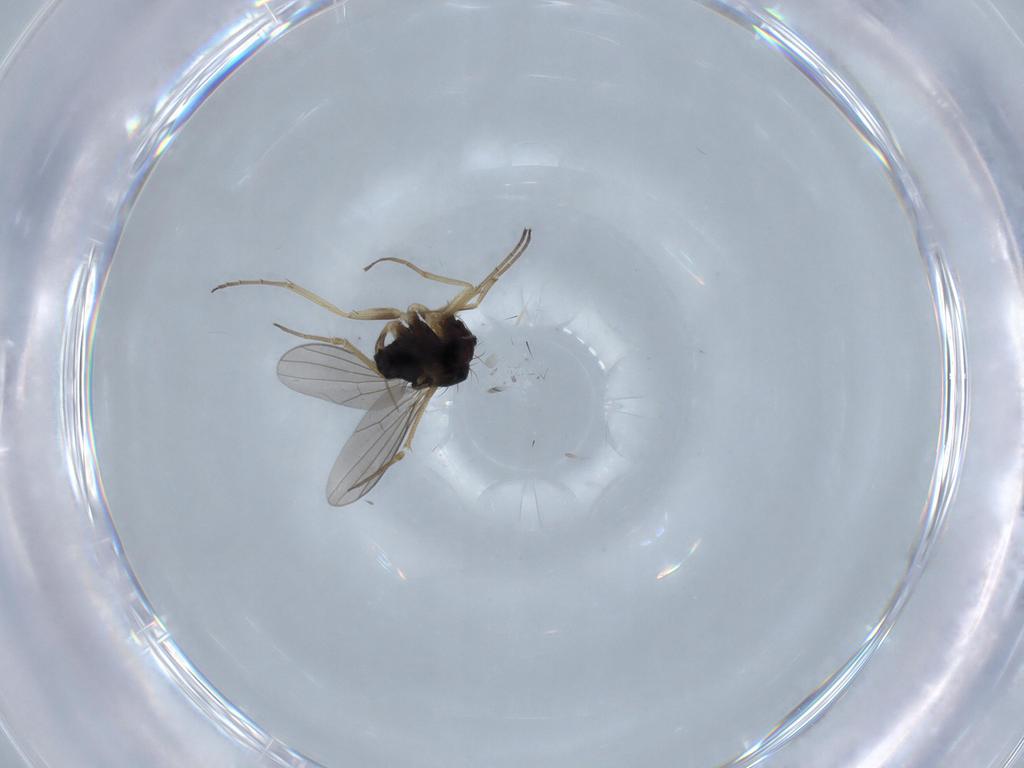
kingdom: Animalia
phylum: Arthropoda
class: Insecta
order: Diptera
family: Dolichopodidae
